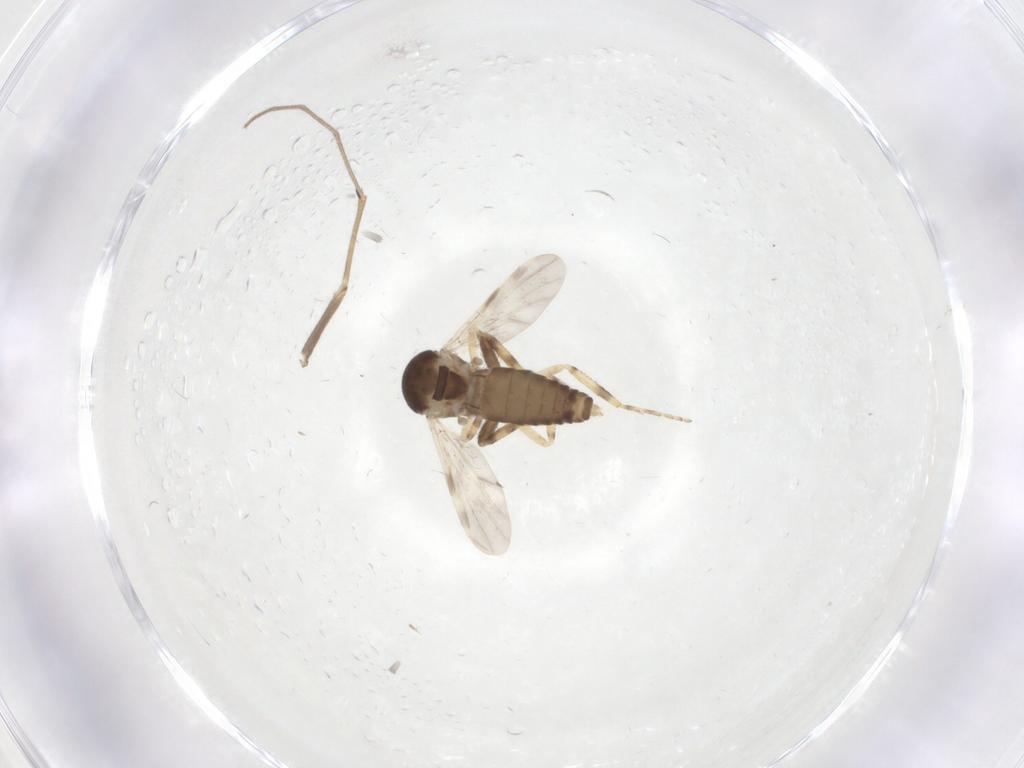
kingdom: Animalia
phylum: Arthropoda
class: Insecta
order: Diptera
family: Ceratopogonidae
